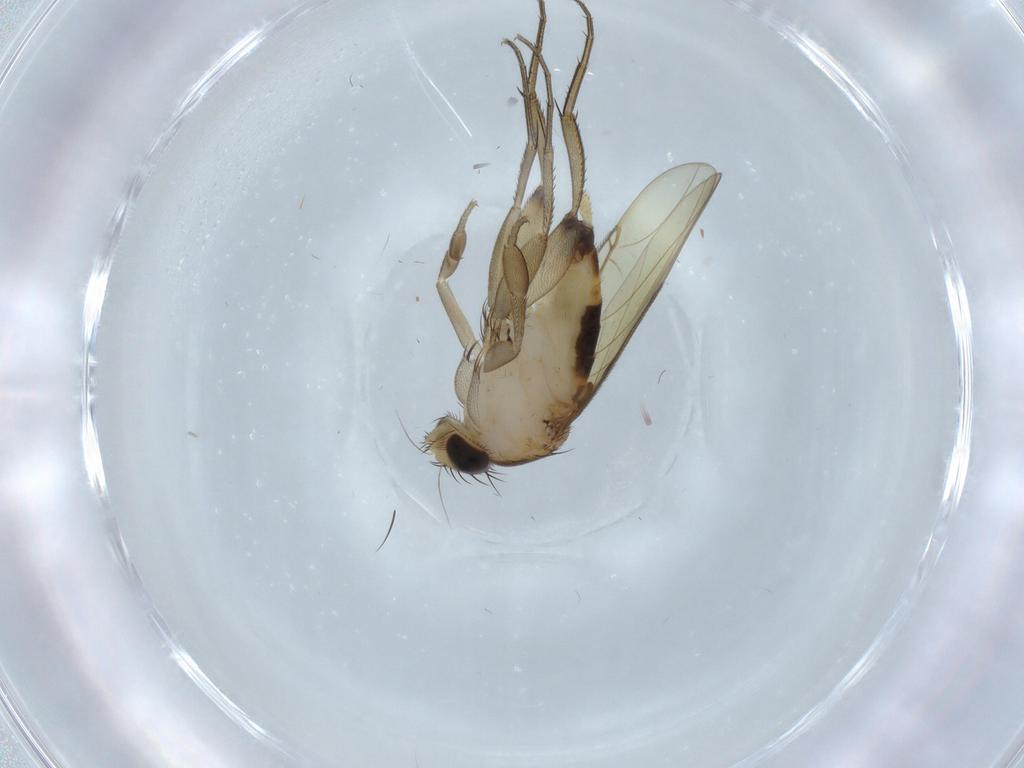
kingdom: Animalia
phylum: Arthropoda
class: Insecta
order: Diptera
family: Phoridae
